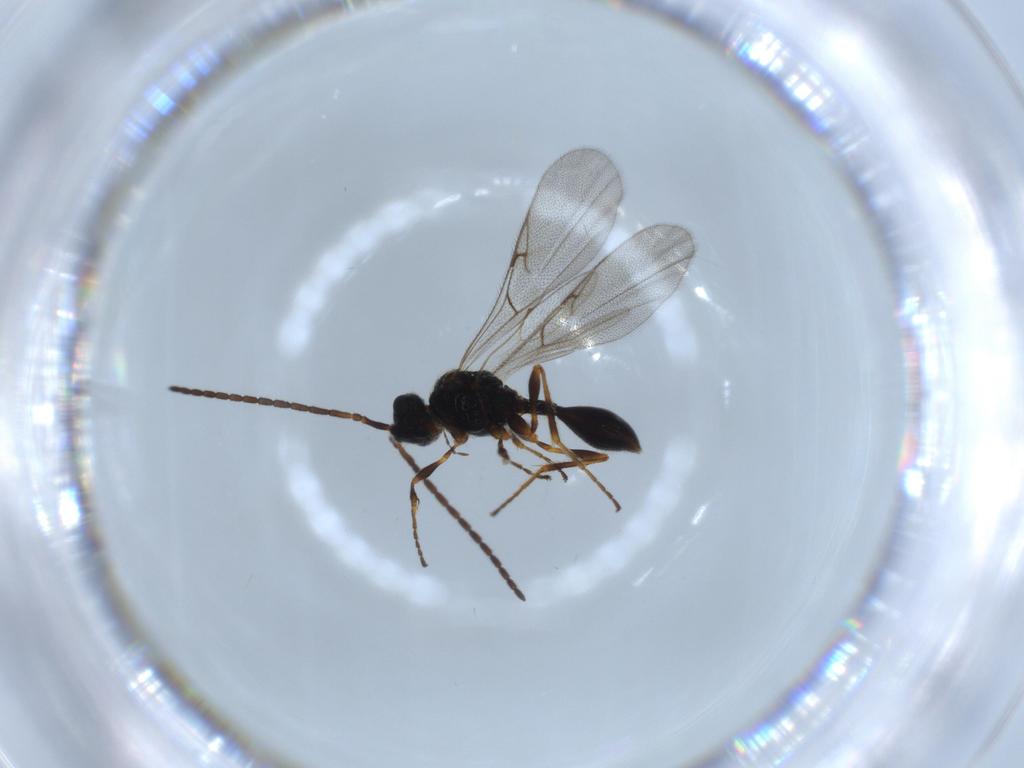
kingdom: Animalia
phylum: Arthropoda
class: Insecta
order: Hymenoptera
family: Diapriidae
